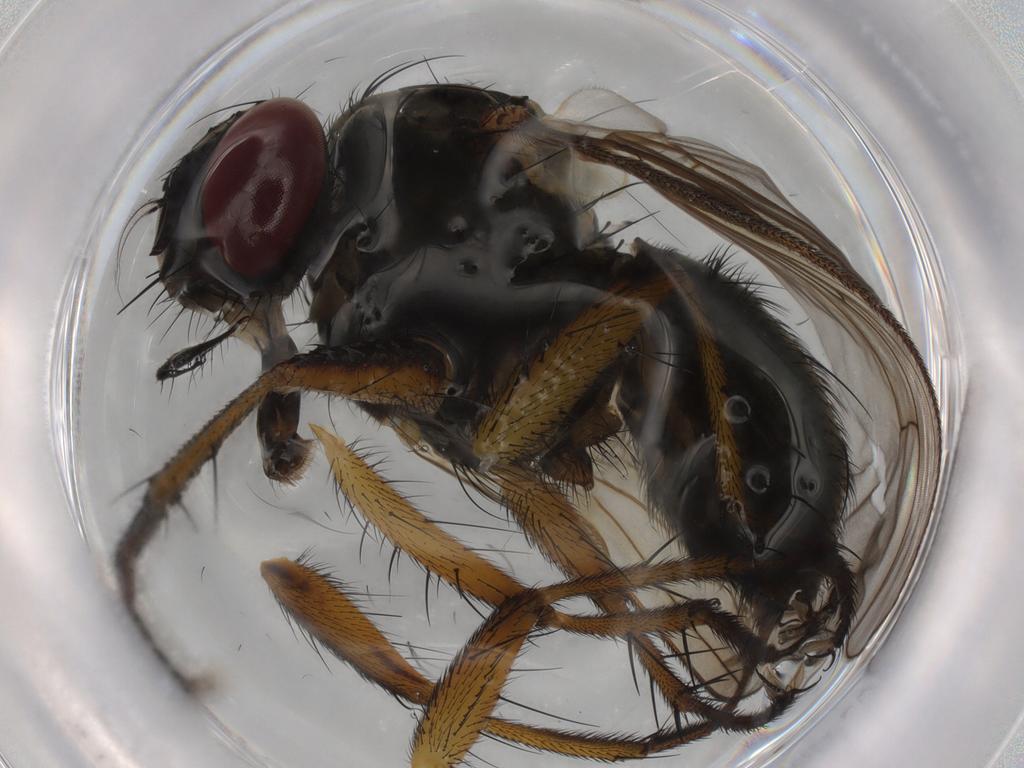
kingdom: Animalia
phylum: Arthropoda
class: Insecta
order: Diptera
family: Muscidae
